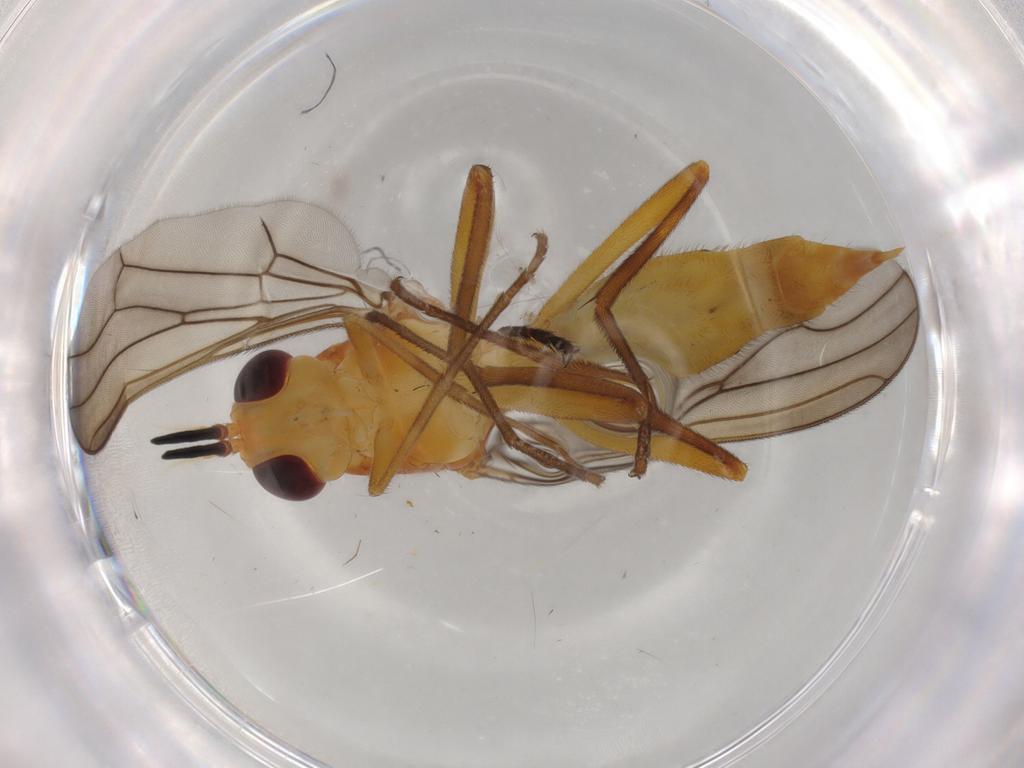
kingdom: Animalia
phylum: Arthropoda
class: Insecta
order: Diptera
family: Psilidae
